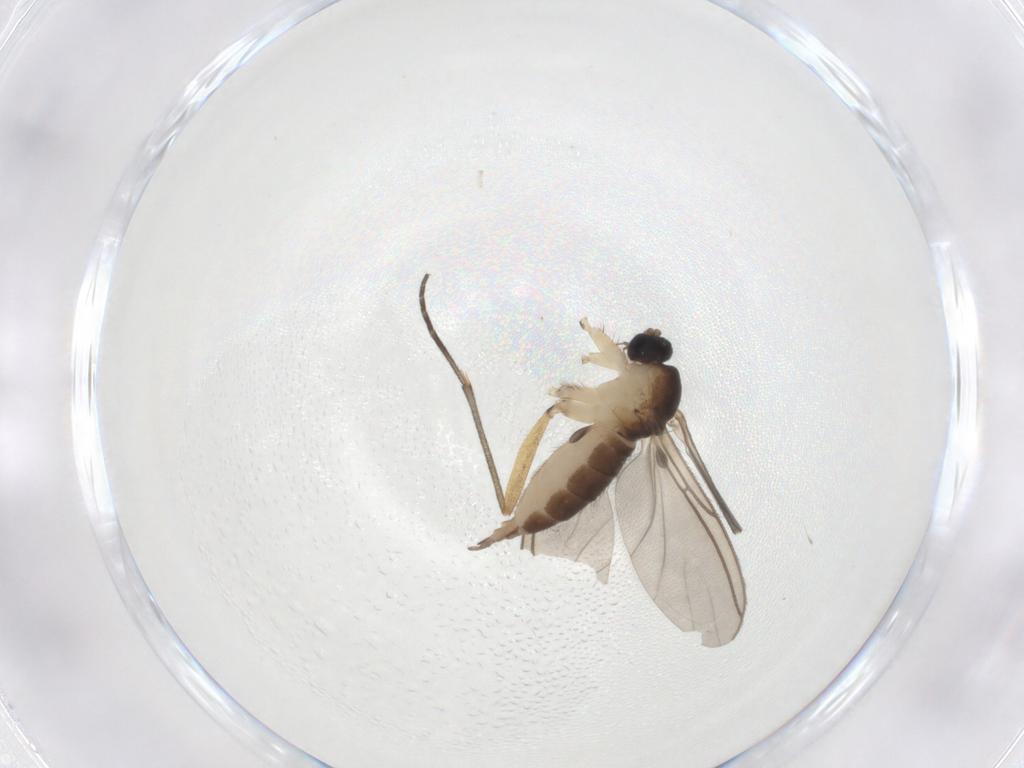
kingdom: Animalia
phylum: Arthropoda
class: Insecta
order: Diptera
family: Sciaridae
